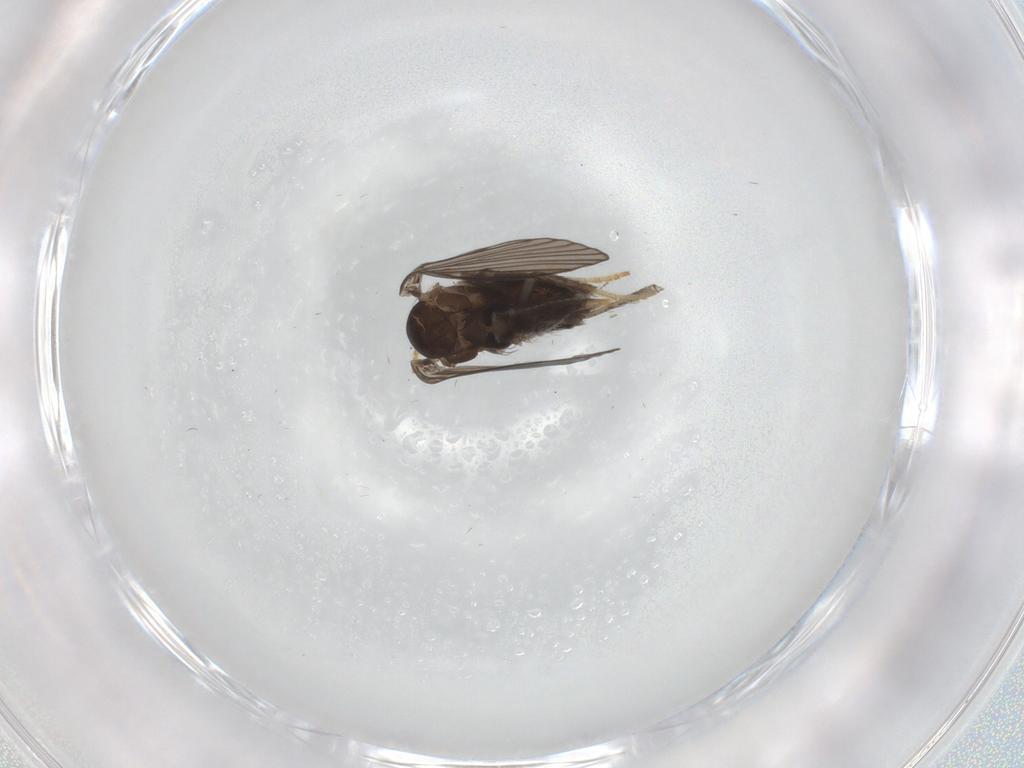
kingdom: Animalia
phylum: Arthropoda
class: Insecta
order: Diptera
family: Psychodidae
